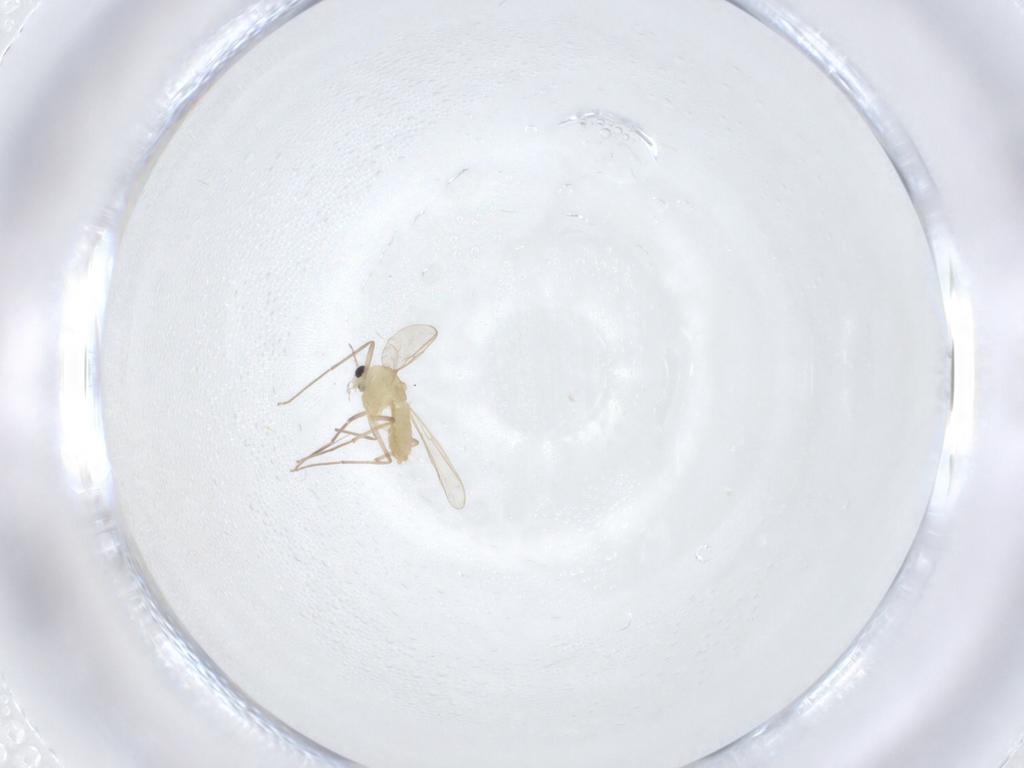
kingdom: Animalia
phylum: Arthropoda
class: Insecta
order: Diptera
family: Chironomidae
